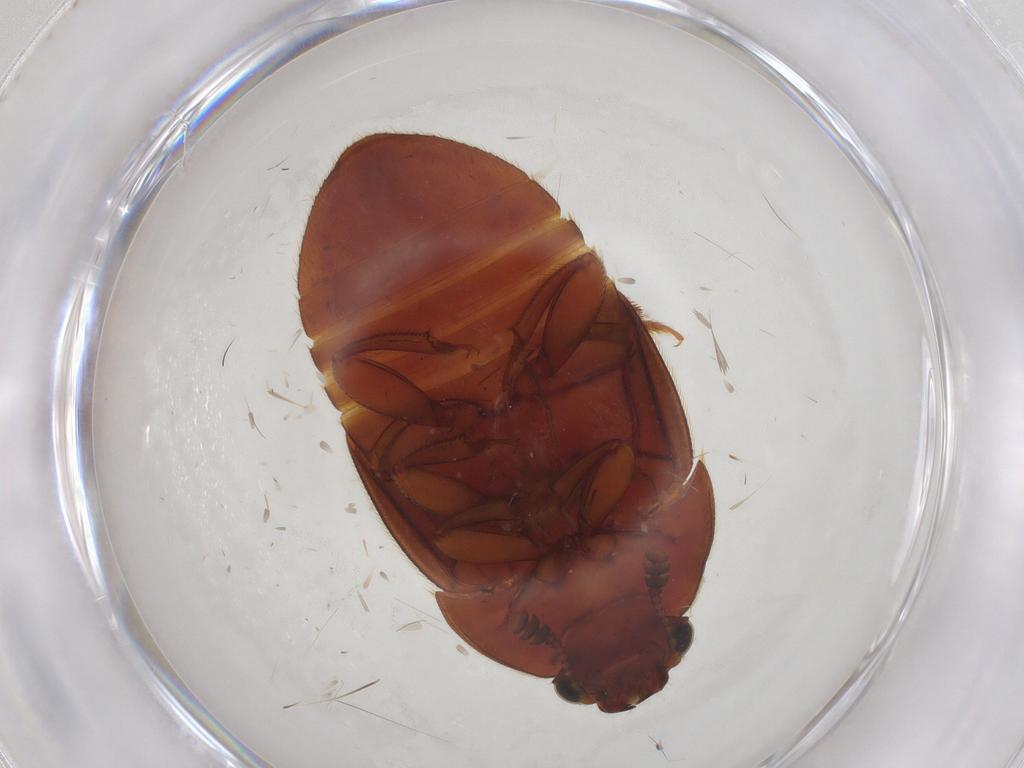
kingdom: Animalia
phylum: Arthropoda
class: Insecta
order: Coleoptera
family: Nitidulidae
